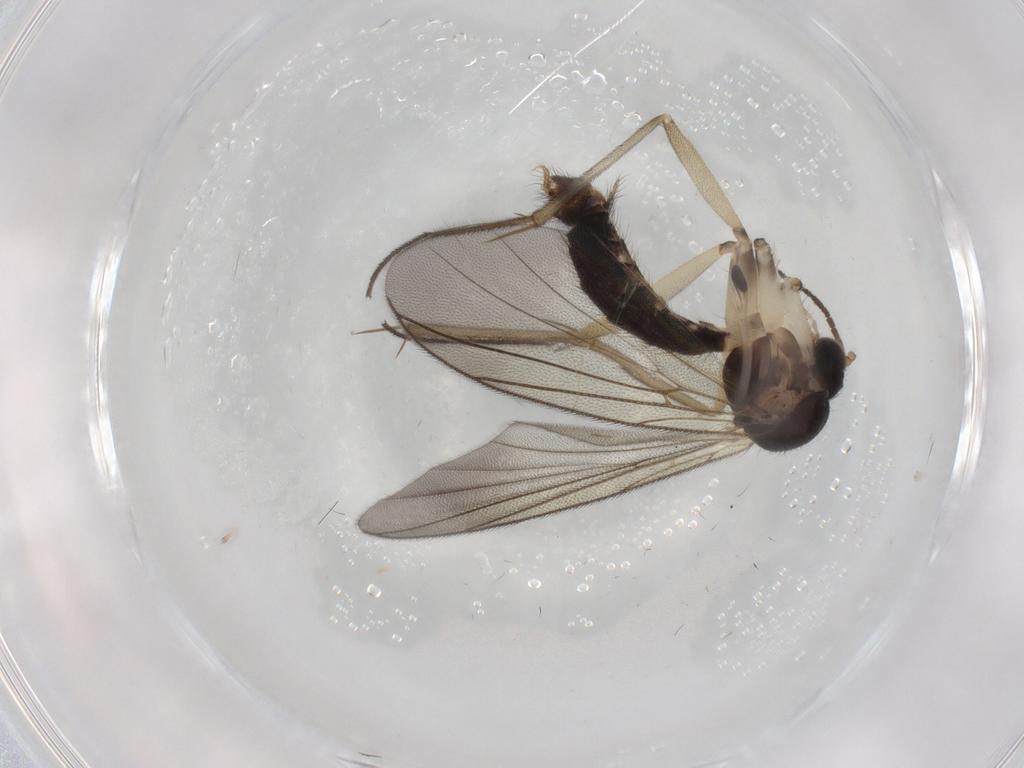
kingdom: Animalia
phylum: Arthropoda
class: Insecta
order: Diptera
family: Mycetophilidae
